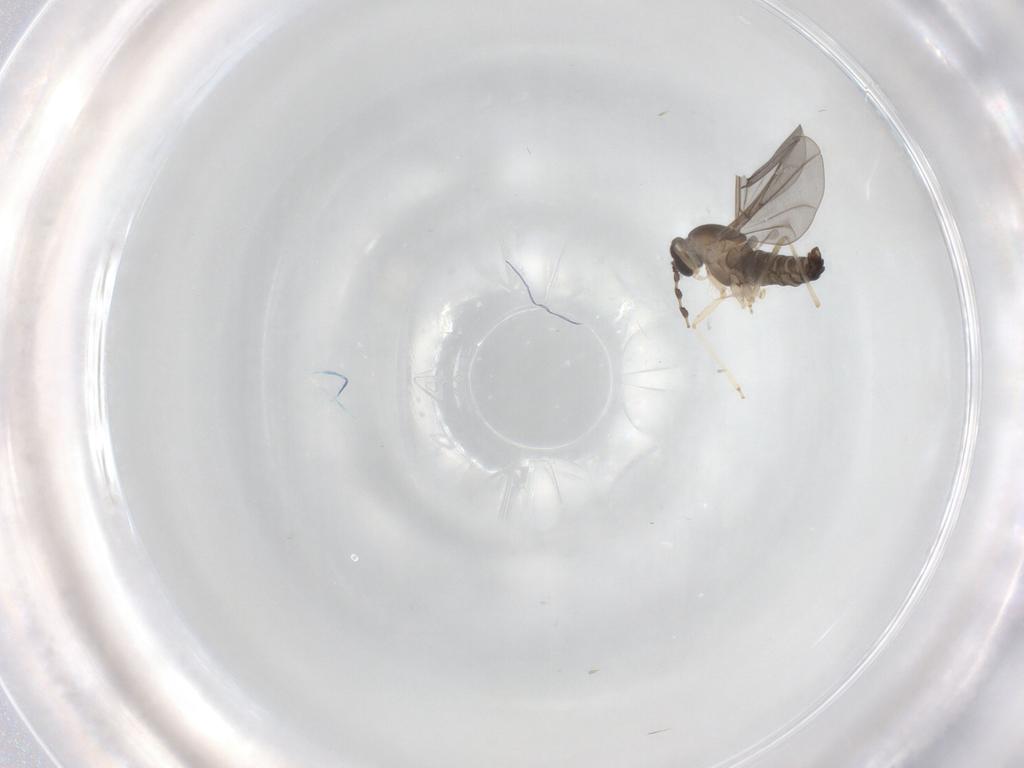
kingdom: Animalia
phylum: Arthropoda
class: Insecta
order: Diptera
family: Cecidomyiidae
